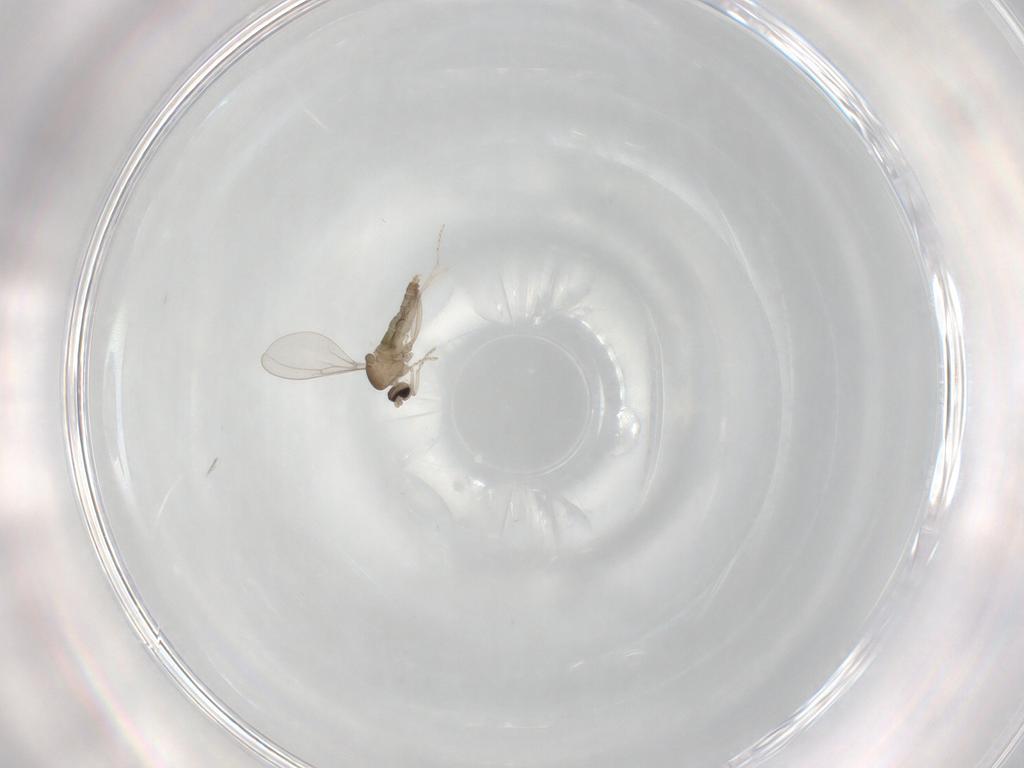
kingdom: Animalia
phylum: Arthropoda
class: Insecta
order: Diptera
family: Cecidomyiidae
